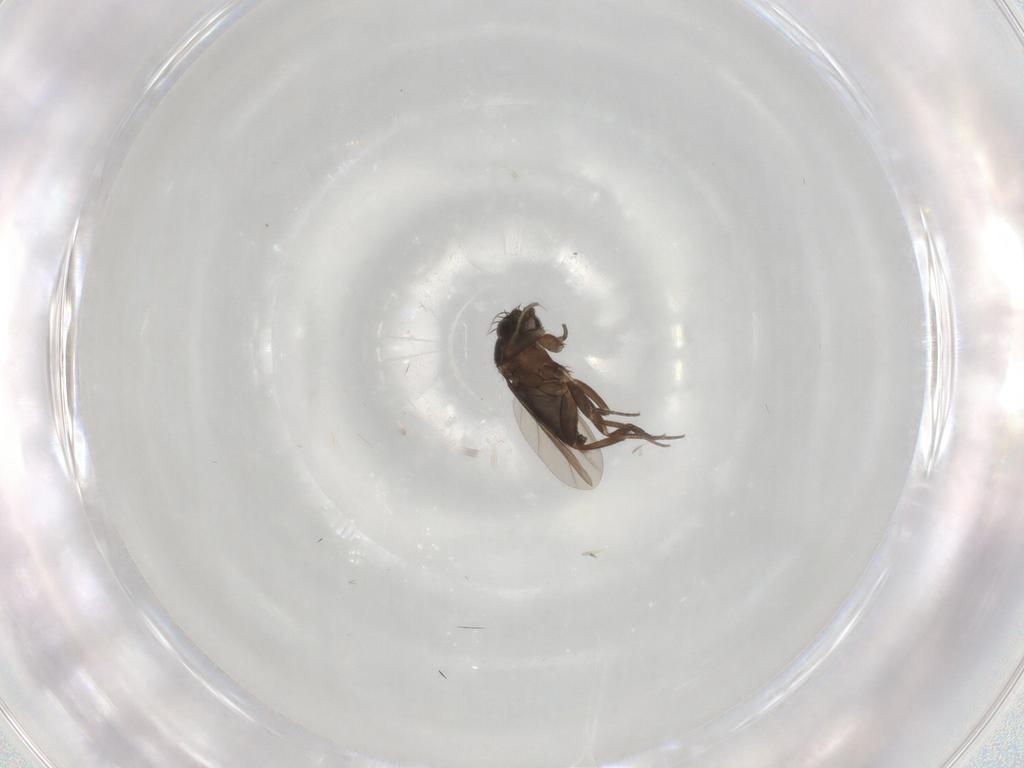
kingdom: Animalia
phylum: Arthropoda
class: Insecta
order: Diptera
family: Phoridae
